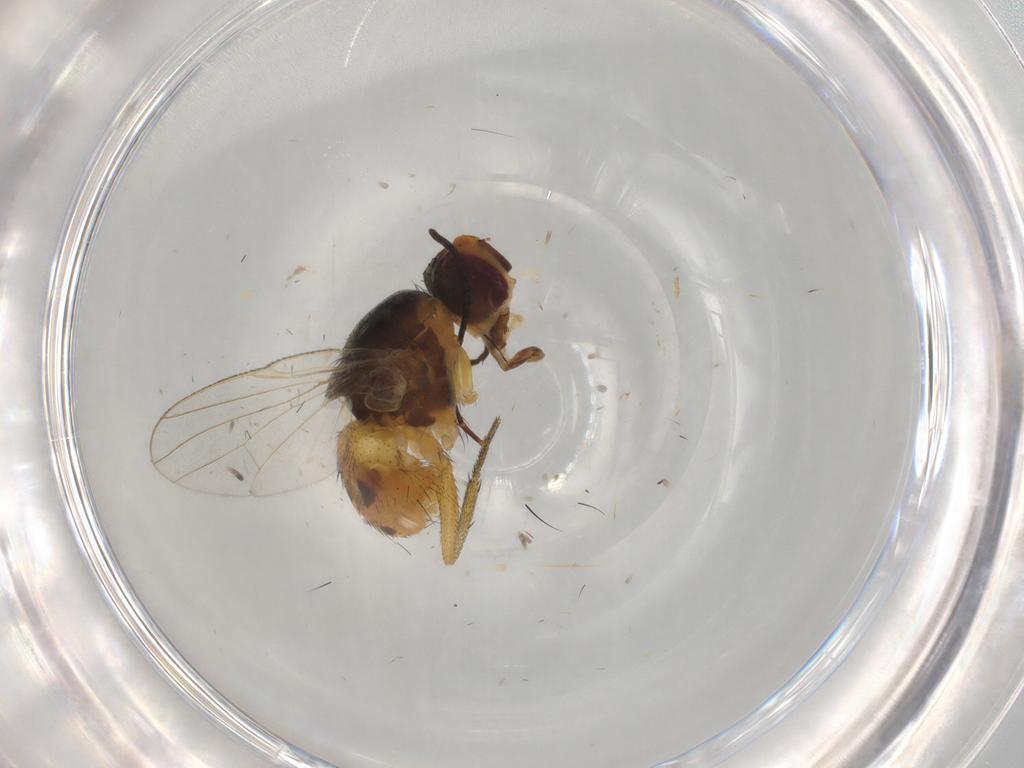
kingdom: Animalia
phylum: Arthropoda
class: Insecta
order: Diptera
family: Muscidae
